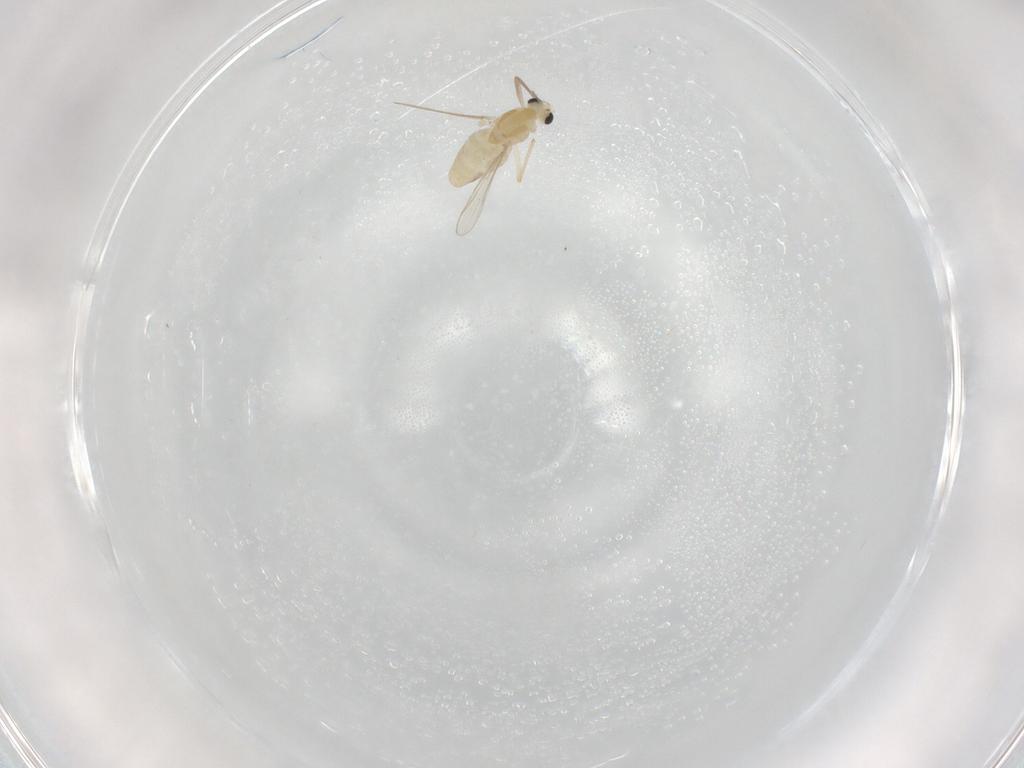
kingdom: Animalia
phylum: Arthropoda
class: Insecta
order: Diptera
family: Chironomidae
